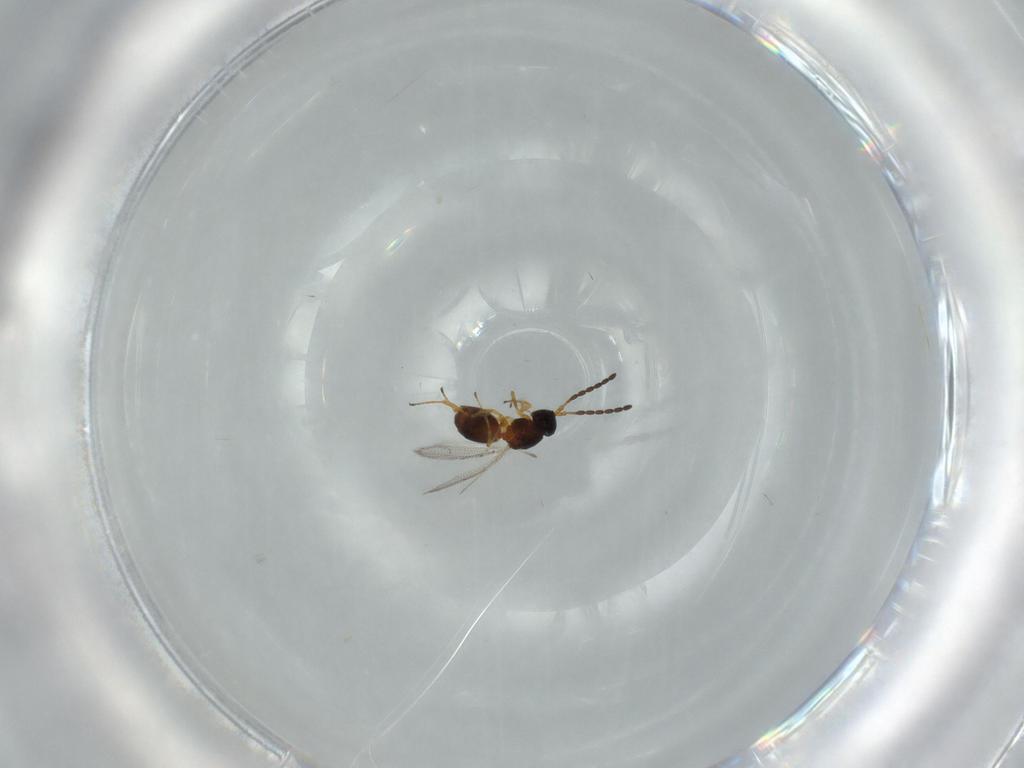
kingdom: Animalia
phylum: Arthropoda
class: Insecta
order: Hymenoptera
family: Figitidae
